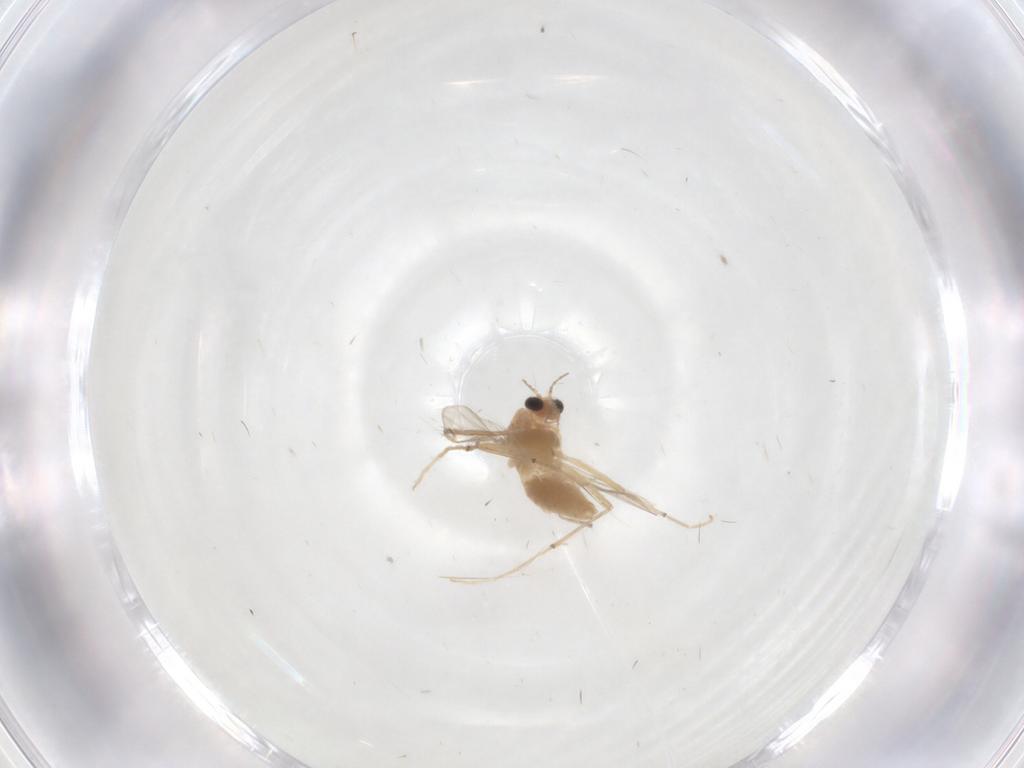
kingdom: Animalia
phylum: Arthropoda
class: Insecta
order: Diptera
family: Chironomidae
